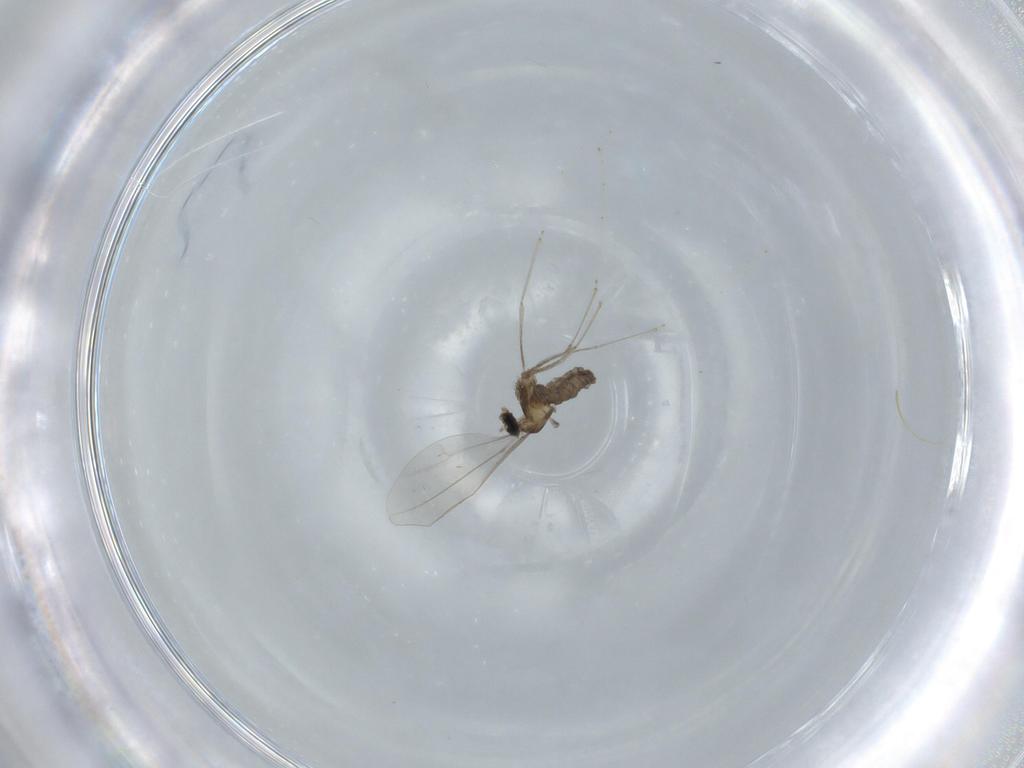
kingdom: Animalia
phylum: Arthropoda
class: Insecta
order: Diptera
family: Cecidomyiidae
